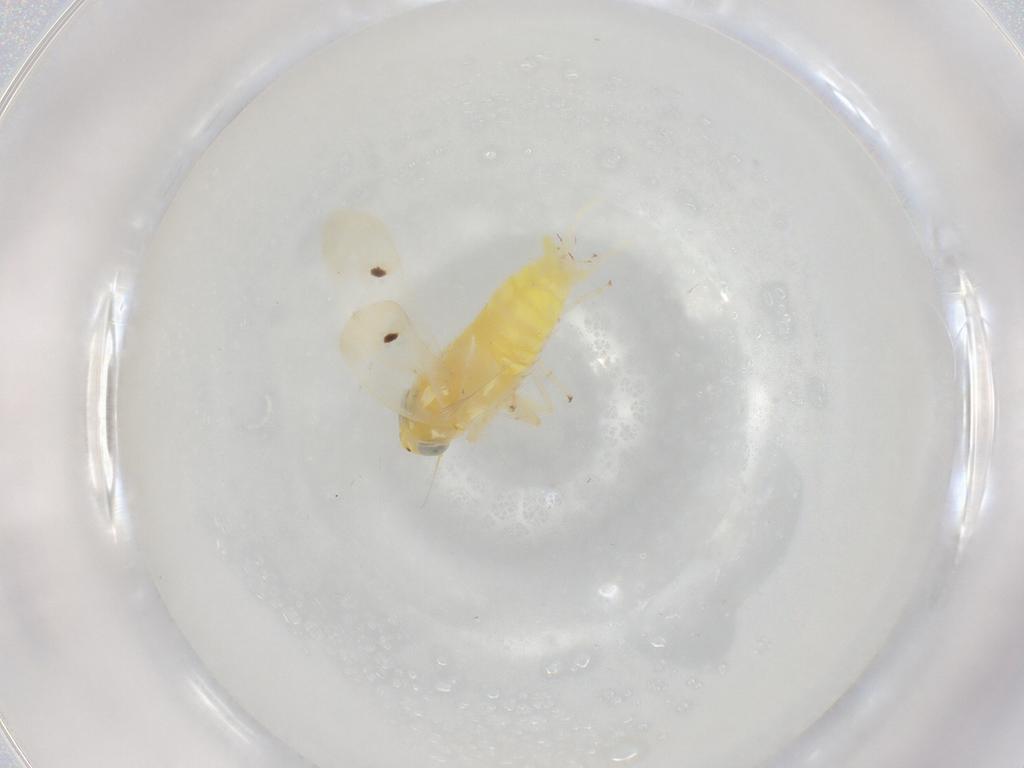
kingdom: Animalia
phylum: Arthropoda
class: Insecta
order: Hemiptera
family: Cicadellidae
